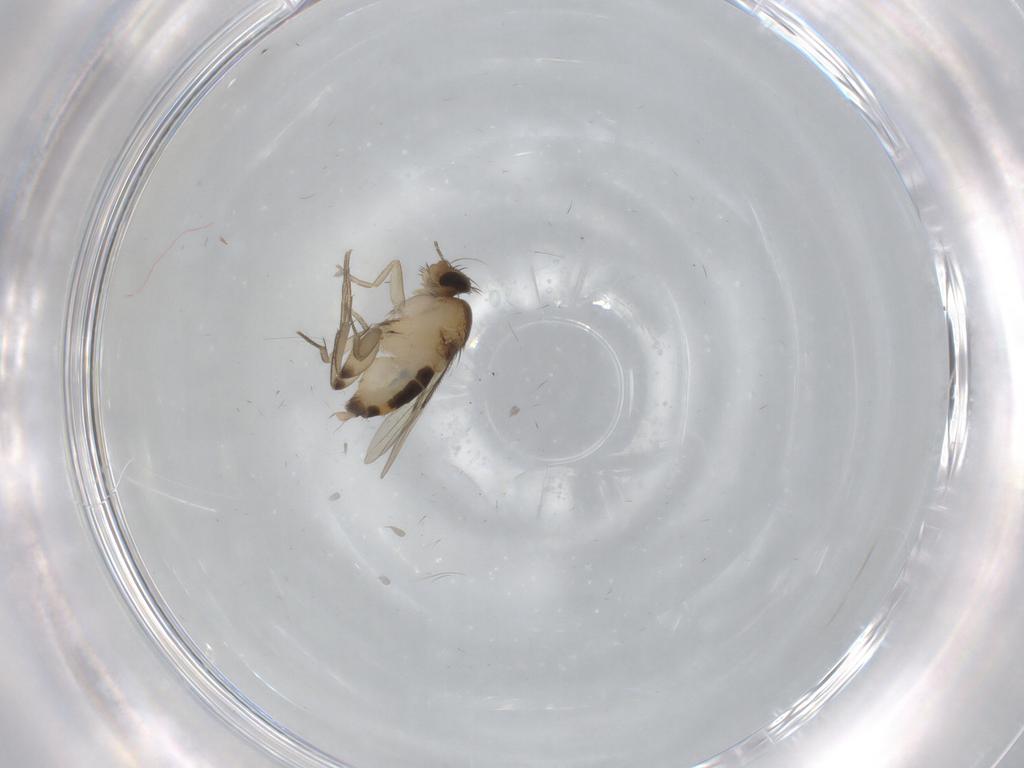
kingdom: Animalia
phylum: Arthropoda
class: Insecta
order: Diptera
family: Phoridae
